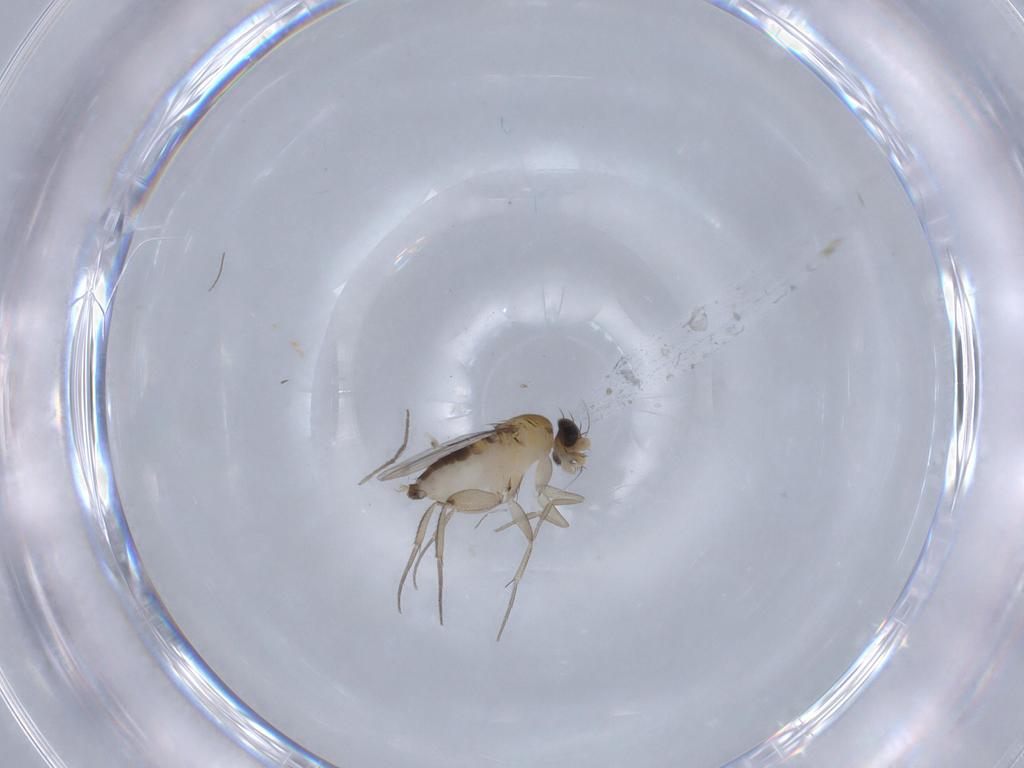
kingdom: Animalia
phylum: Arthropoda
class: Insecta
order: Diptera
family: Phoridae
